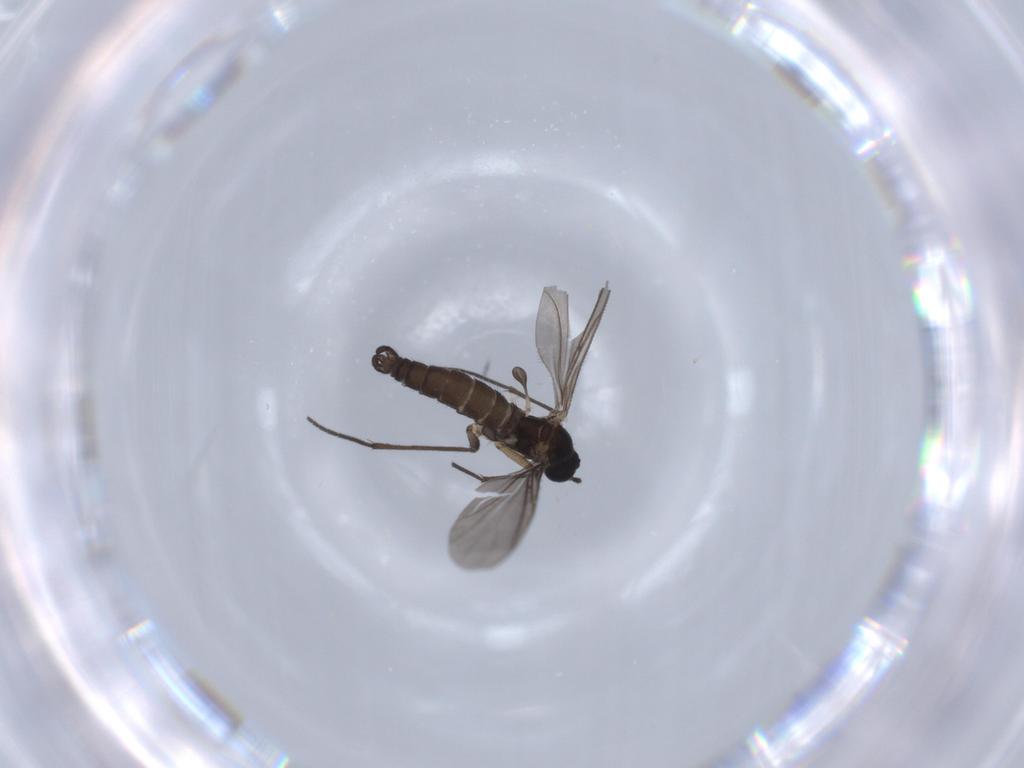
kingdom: Animalia
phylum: Arthropoda
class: Insecta
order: Diptera
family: Sciaridae
